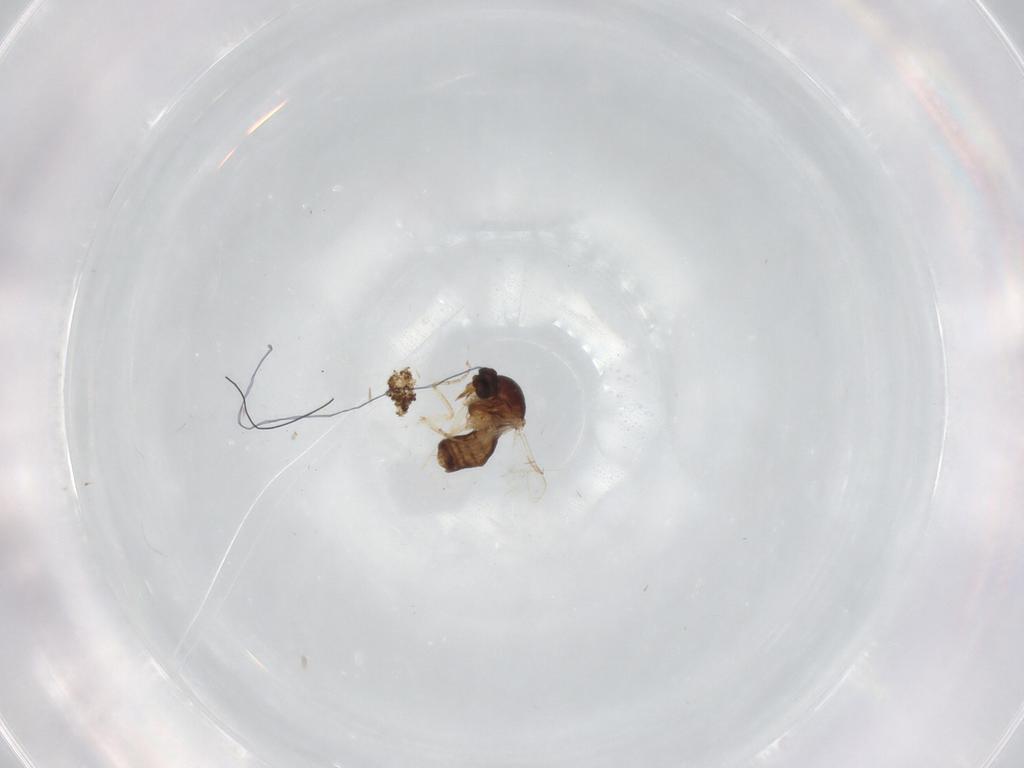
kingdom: Animalia
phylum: Arthropoda
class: Insecta
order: Diptera
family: Ceratopogonidae
